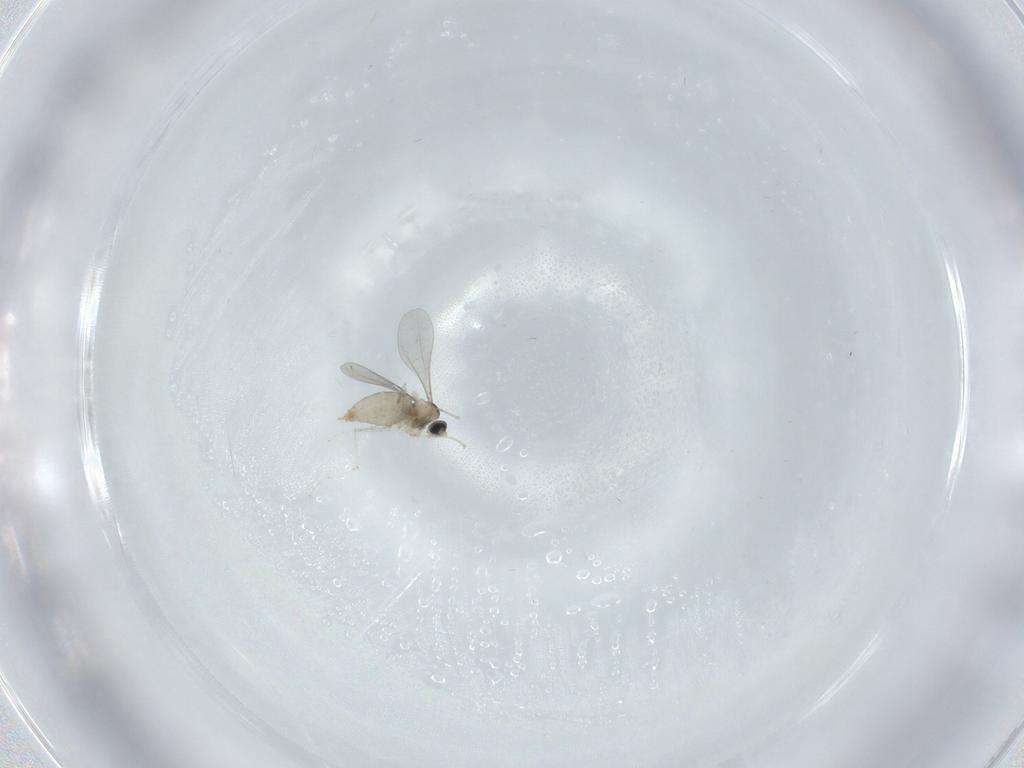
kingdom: Animalia
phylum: Arthropoda
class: Insecta
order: Diptera
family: Cecidomyiidae
